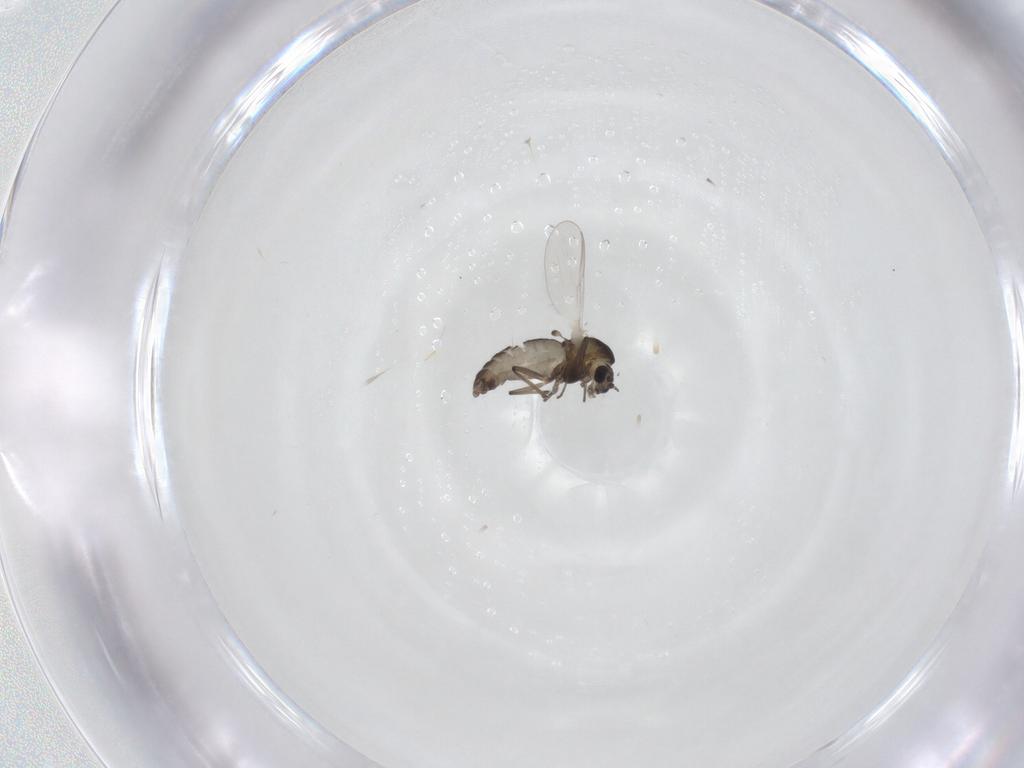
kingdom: Animalia
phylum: Arthropoda
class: Insecta
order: Diptera
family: Chironomidae
